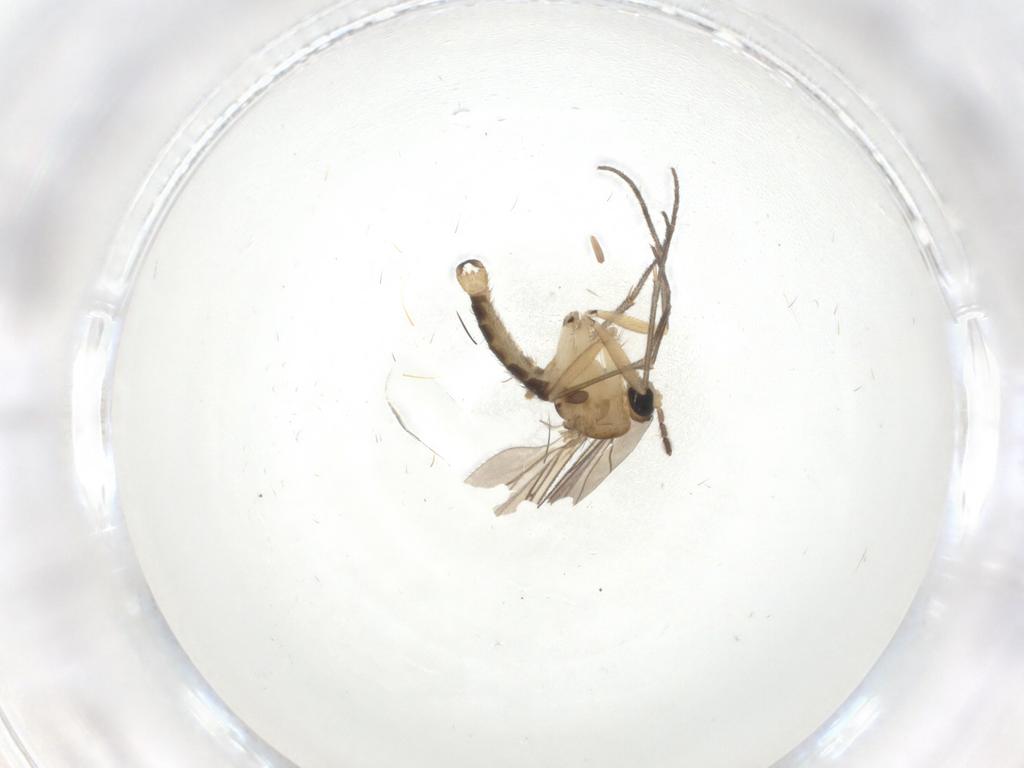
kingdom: Animalia
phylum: Arthropoda
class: Insecta
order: Diptera
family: Sciaridae
